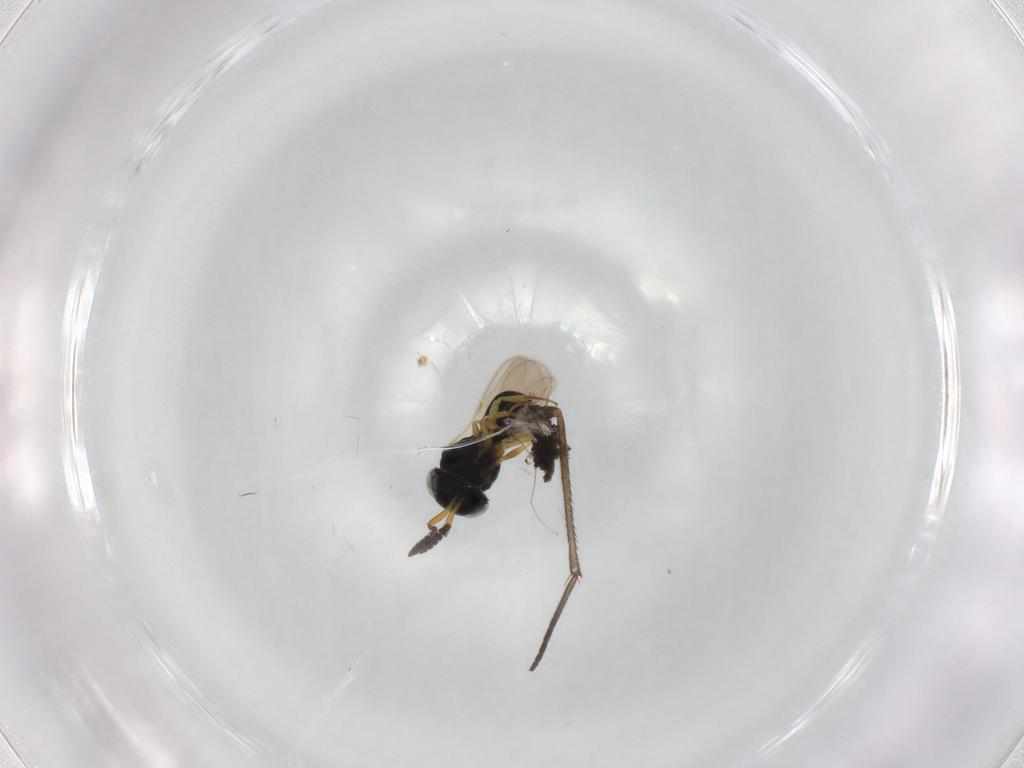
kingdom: Animalia
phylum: Arthropoda
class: Insecta
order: Hymenoptera
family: Scelionidae
